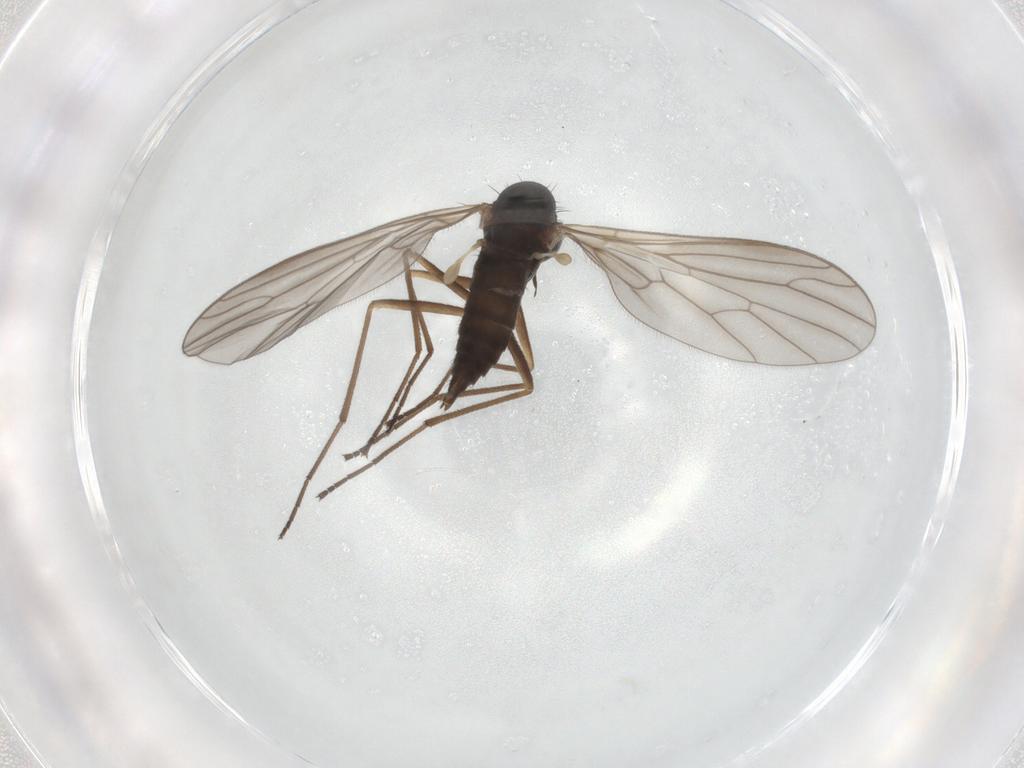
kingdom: Animalia
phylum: Arthropoda
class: Insecta
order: Diptera
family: Empididae
